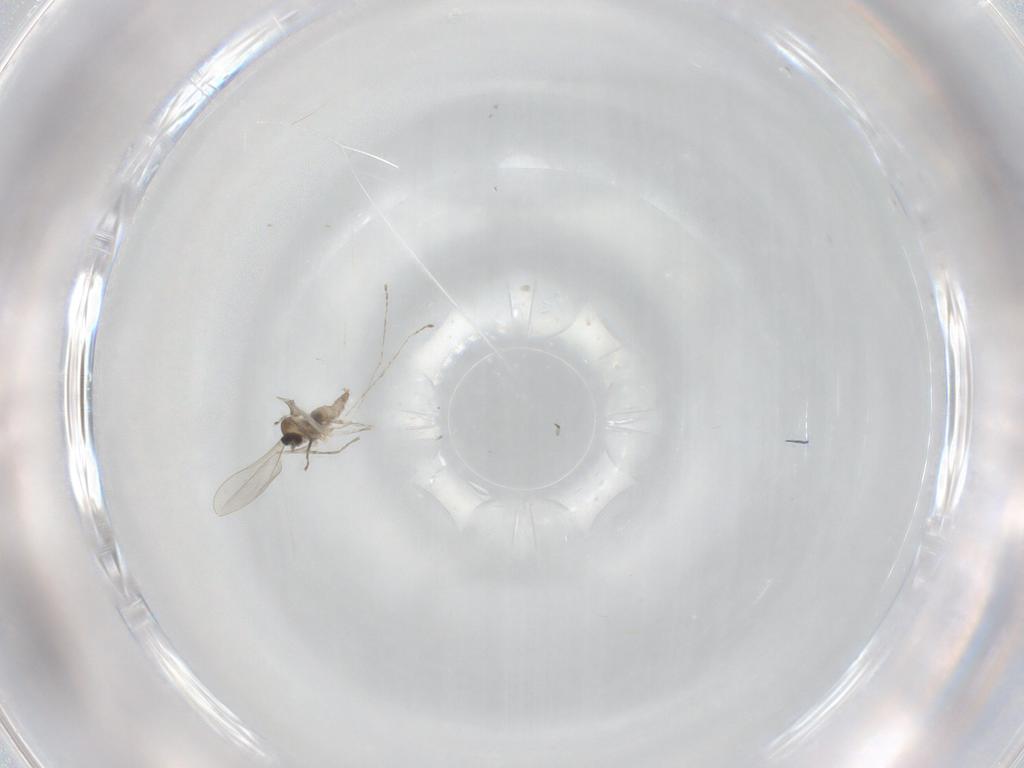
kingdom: Animalia
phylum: Arthropoda
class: Insecta
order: Diptera
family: Cecidomyiidae
